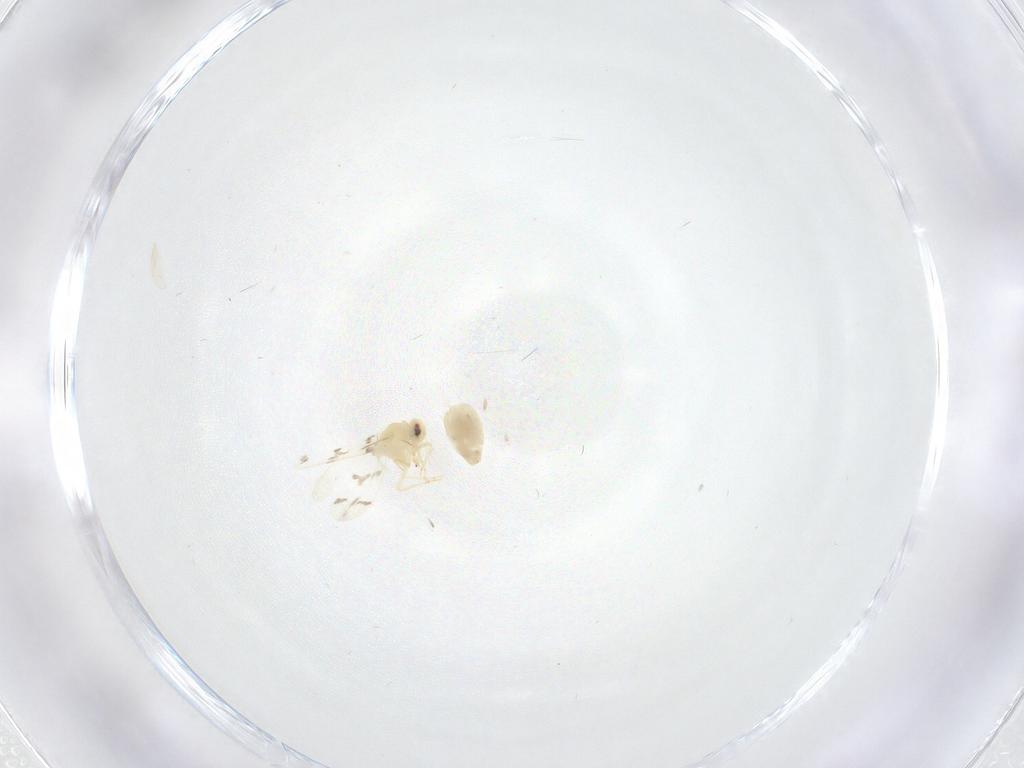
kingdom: Animalia
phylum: Arthropoda
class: Insecta
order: Hemiptera
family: Aleyrodidae
